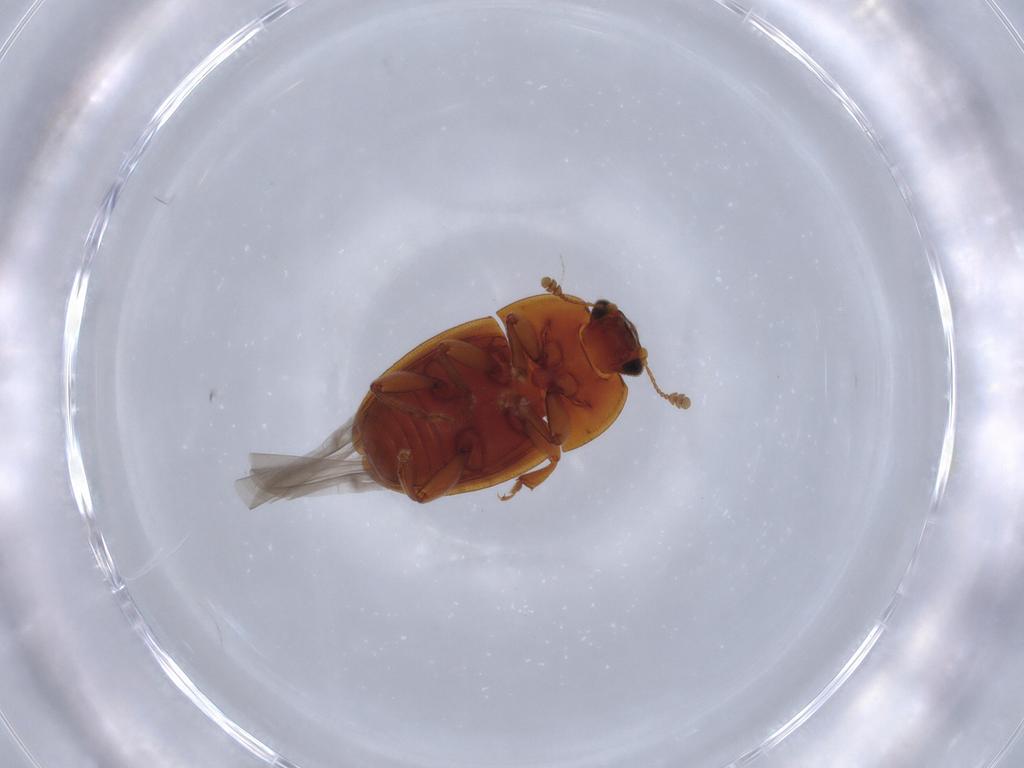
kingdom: Animalia
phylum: Arthropoda
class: Insecta
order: Coleoptera
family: Nitidulidae
